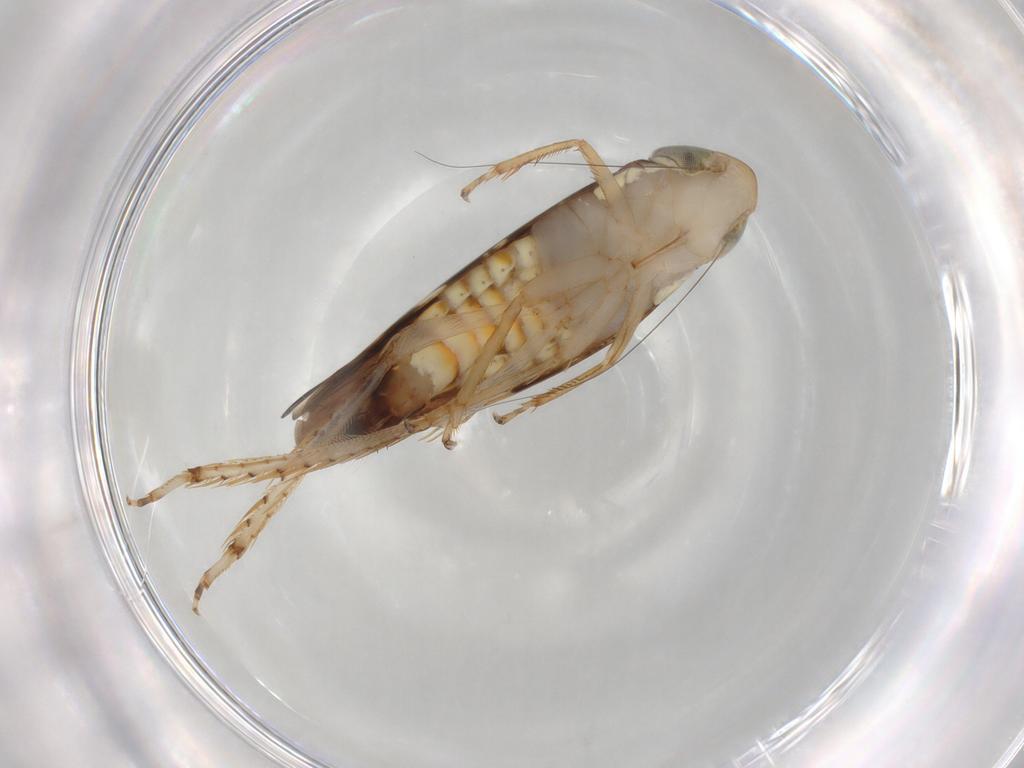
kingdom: Animalia
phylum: Arthropoda
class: Insecta
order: Hemiptera
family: Cicadellidae
